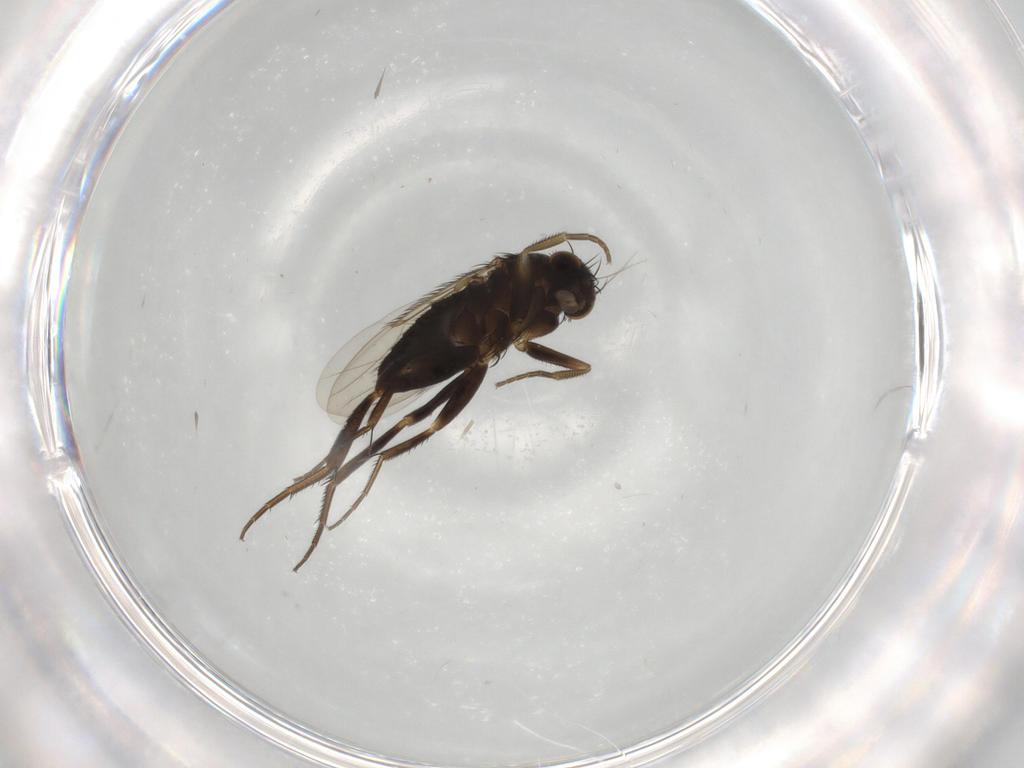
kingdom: Animalia
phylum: Arthropoda
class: Insecta
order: Diptera
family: Phoridae
